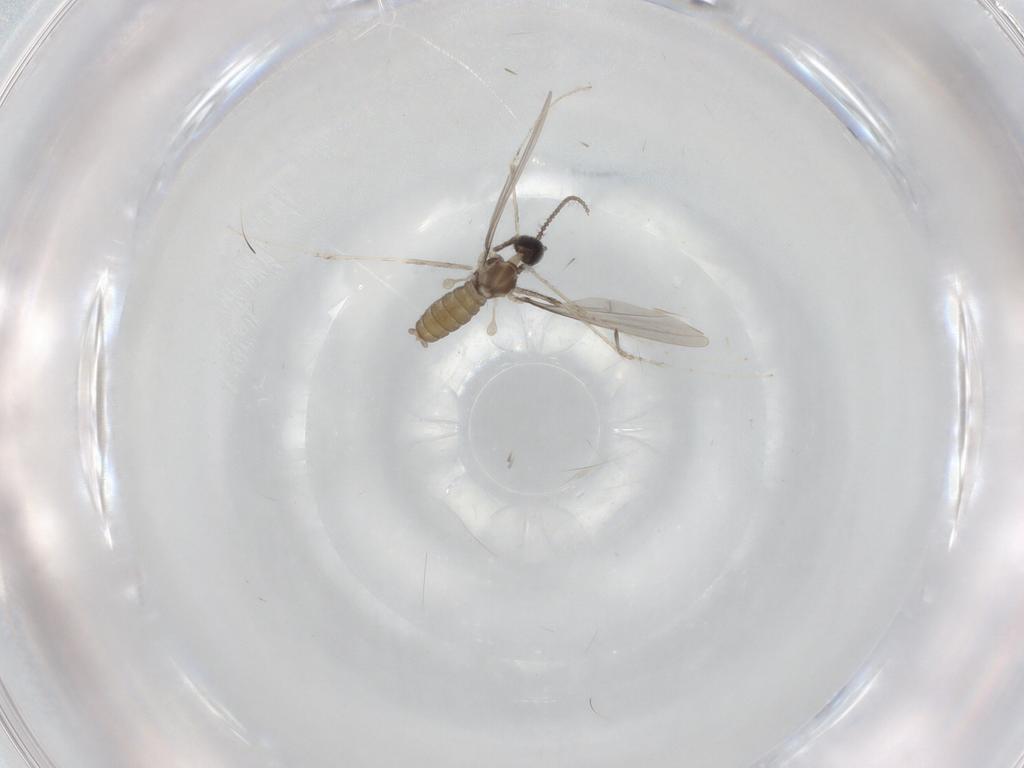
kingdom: Animalia
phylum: Arthropoda
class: Insecta
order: Diptera
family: Cecidomyiidae
